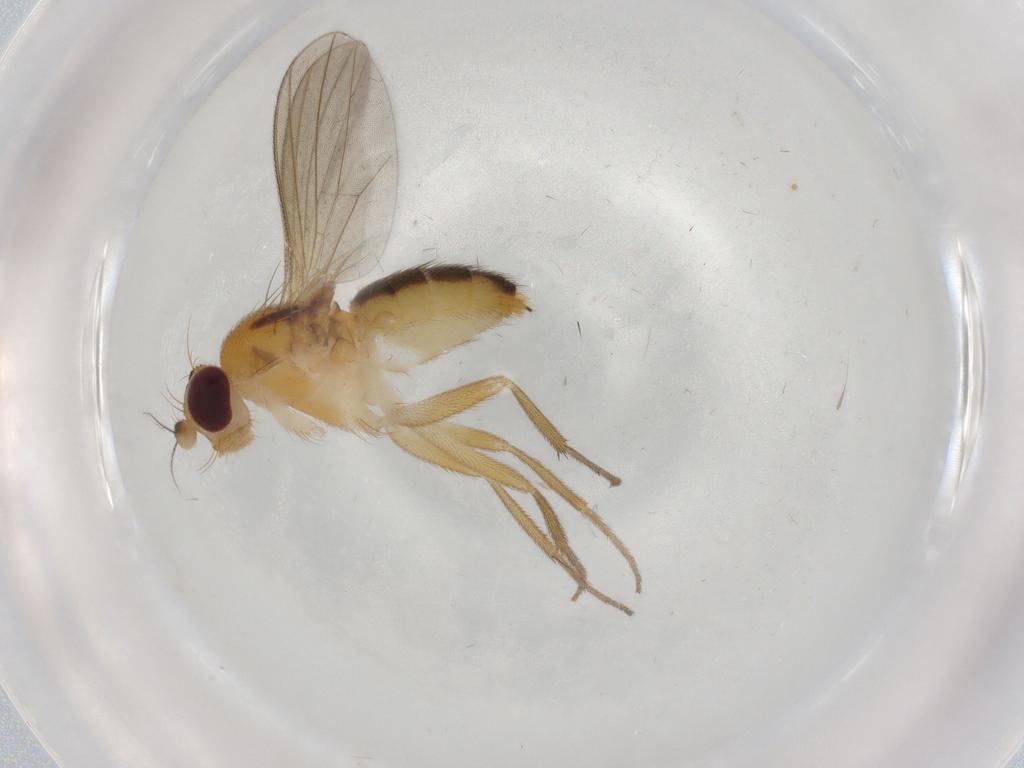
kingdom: Animalia
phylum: Arthropoda
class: Insecta
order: Diptera
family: Clusiidae
